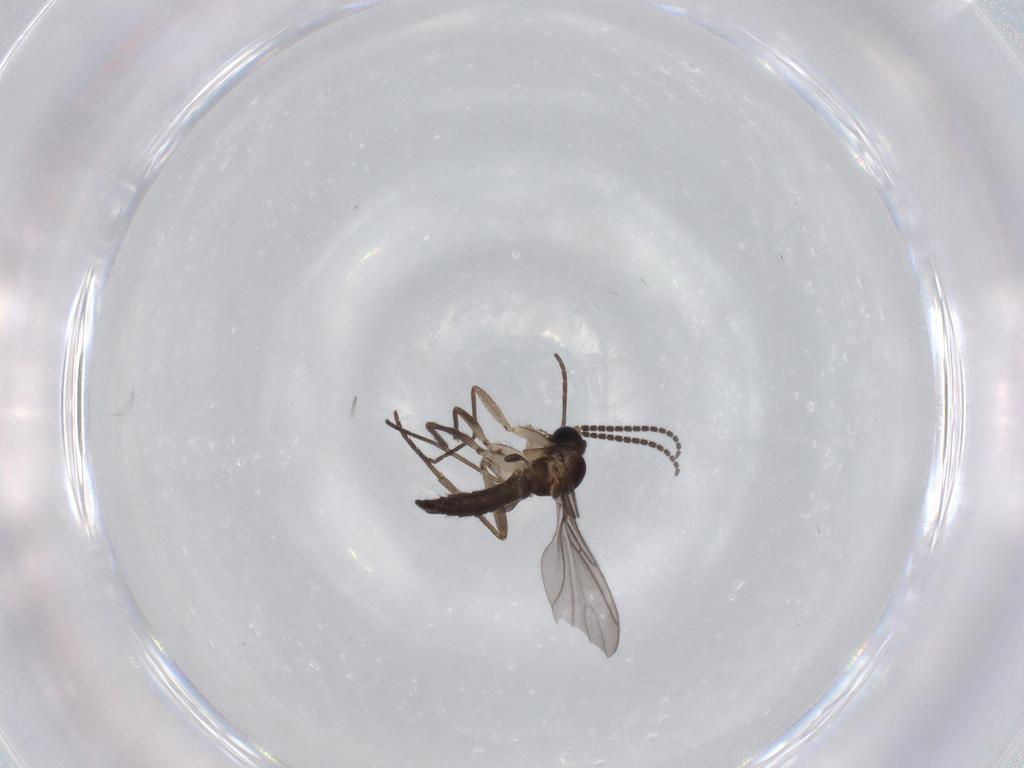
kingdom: Animalia
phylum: Arthropoda
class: Insecta
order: Diptera
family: Sciaridae
